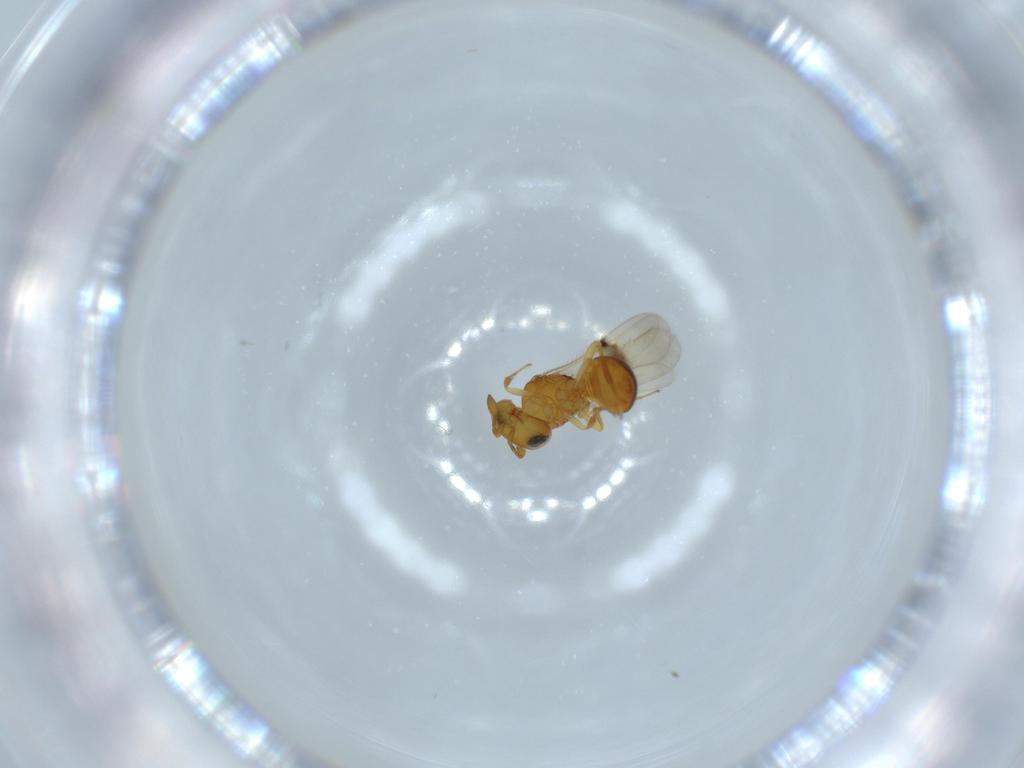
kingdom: Animalia
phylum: Arthropoda
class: Insecta
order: Hymenoptera
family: Scelionidae
